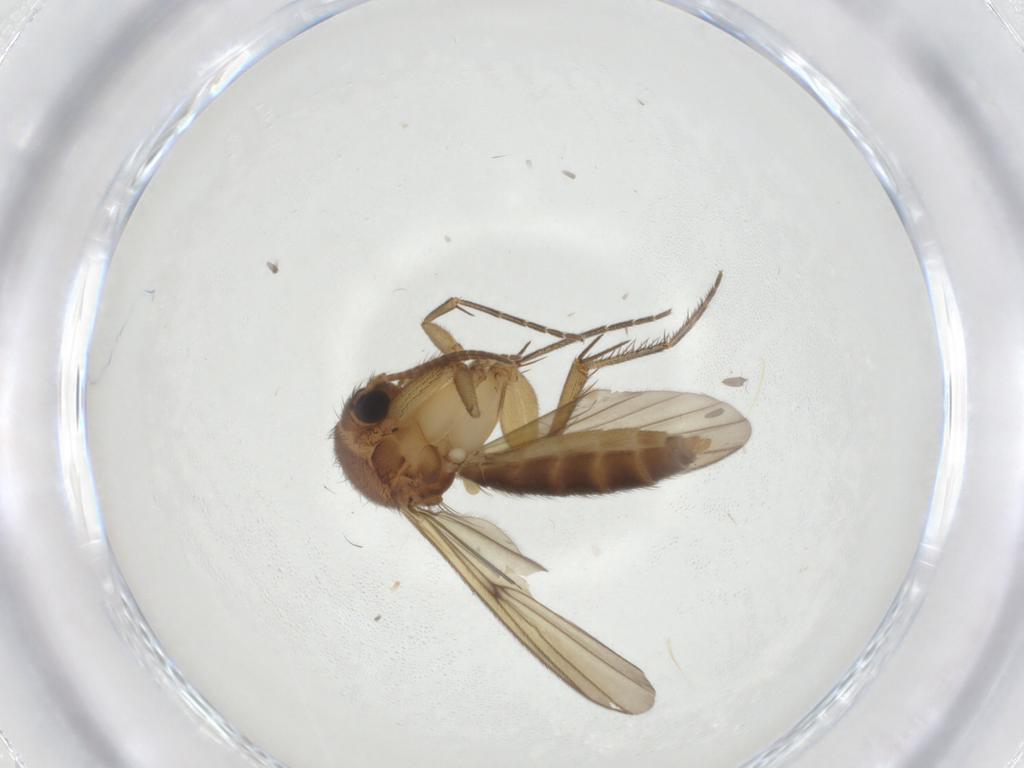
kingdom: Animalia
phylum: Arthropoda
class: Insecta
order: Diptera
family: Mycetophilidae
